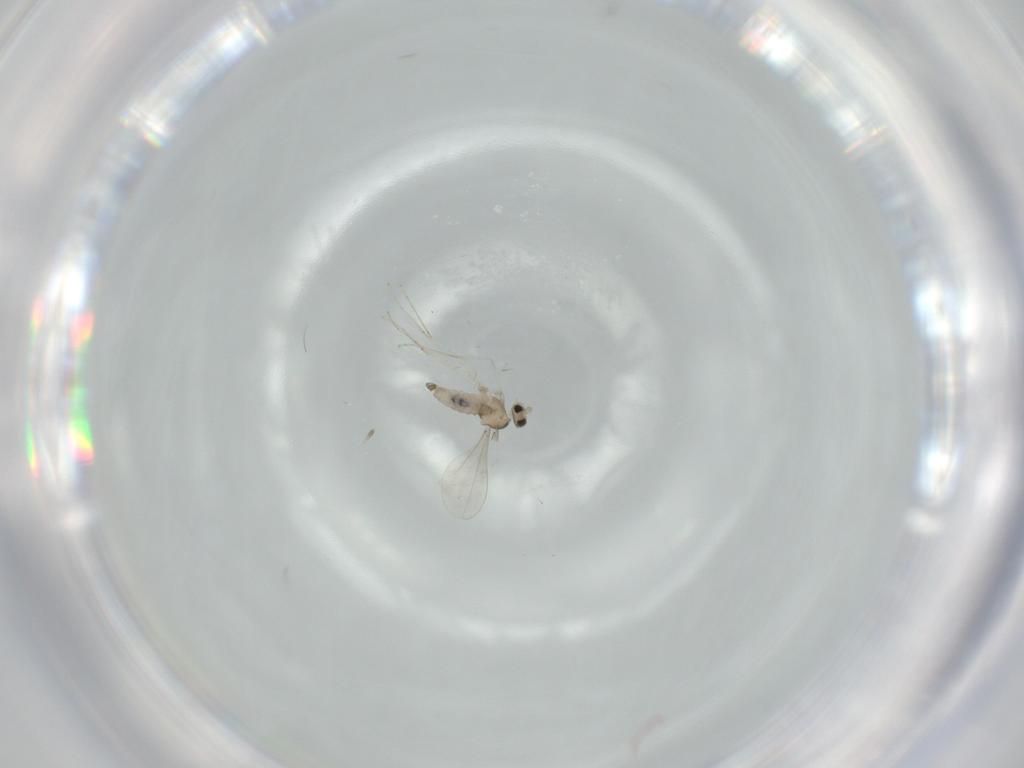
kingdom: Animalia
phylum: Arthropoda
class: Insecta
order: Diptera
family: Cecidomyiidae
